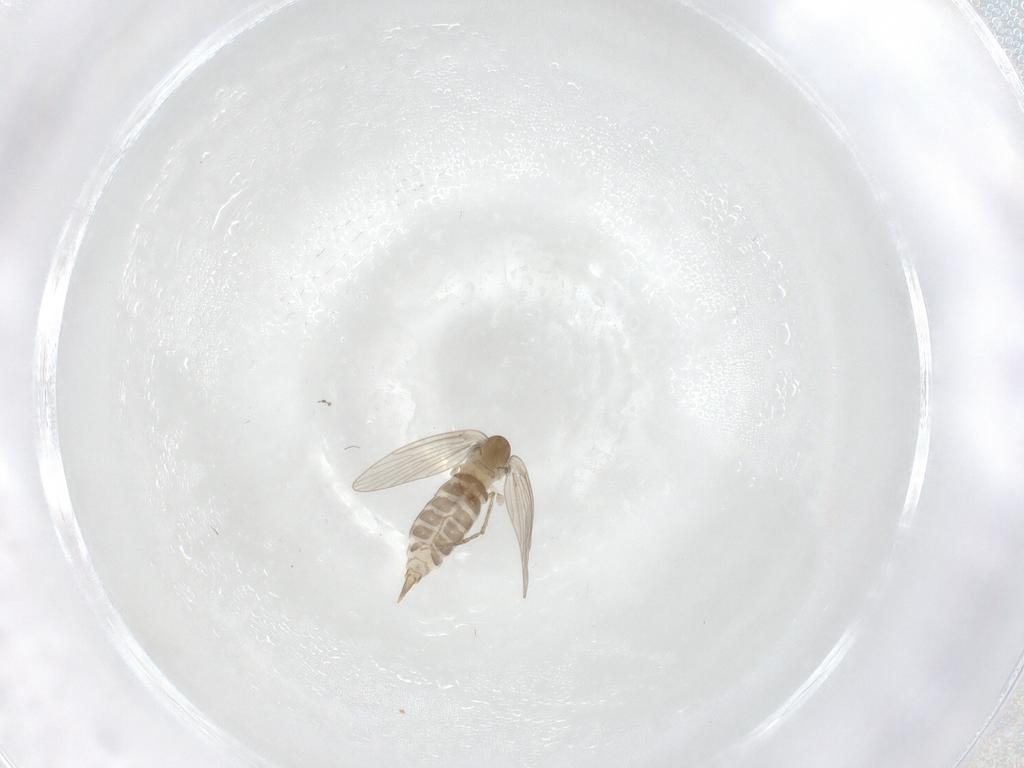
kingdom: Animalia
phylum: Arthropoda
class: Insecta
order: Diptera
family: Psychodidae
